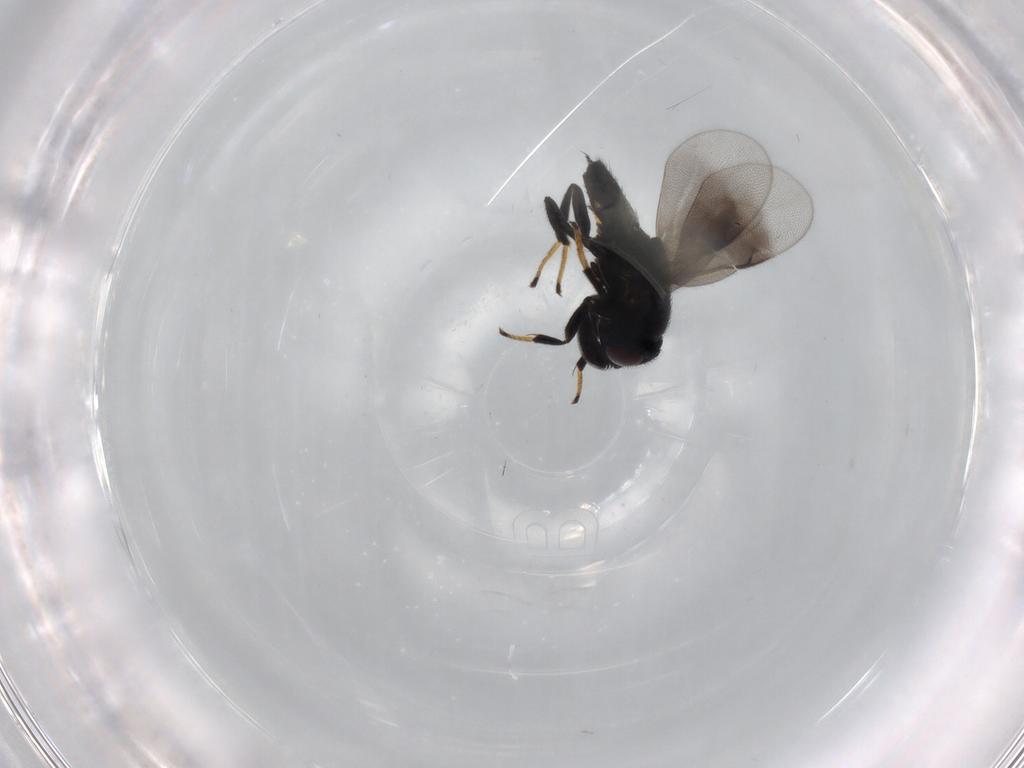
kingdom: Animalia
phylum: Arthropoda
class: Insecta
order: Hymenoptera
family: Encyrtidae
